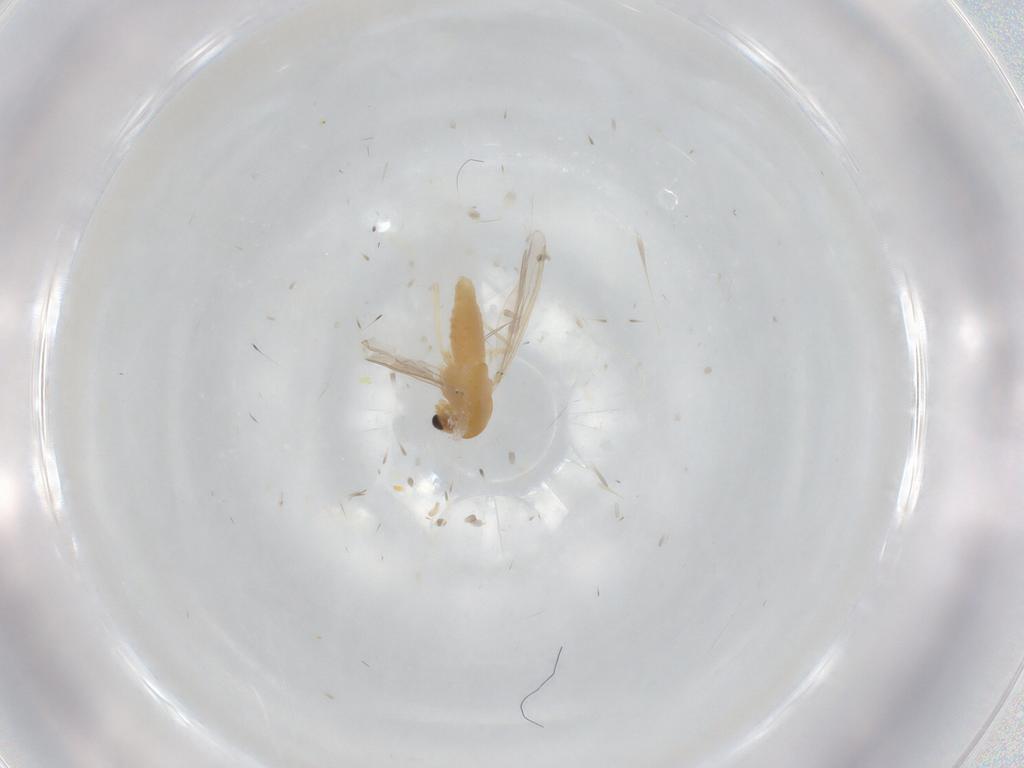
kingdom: Animalia
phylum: Arthropoda
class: Insecta
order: Diptera
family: Chironomidae
